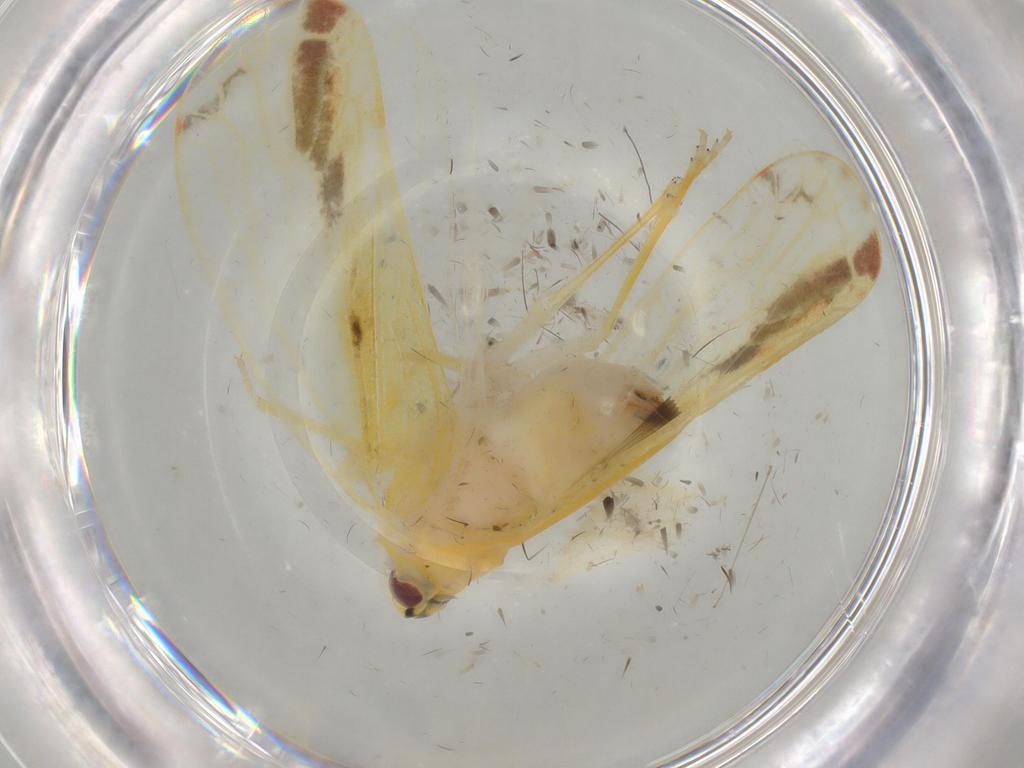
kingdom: Animalia
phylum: Arthropoda
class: Insecta
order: Hemiptera
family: Derbidae
